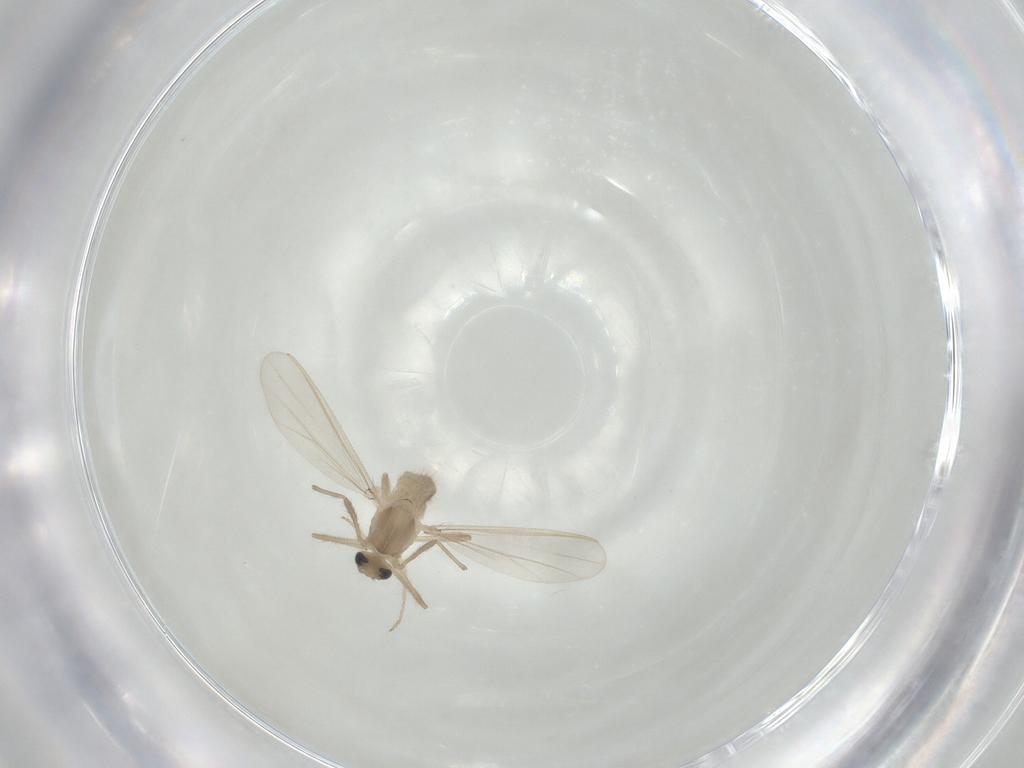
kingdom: Animalia
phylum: Arthropoda
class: Insecta
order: Diptera
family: Chironomidae
